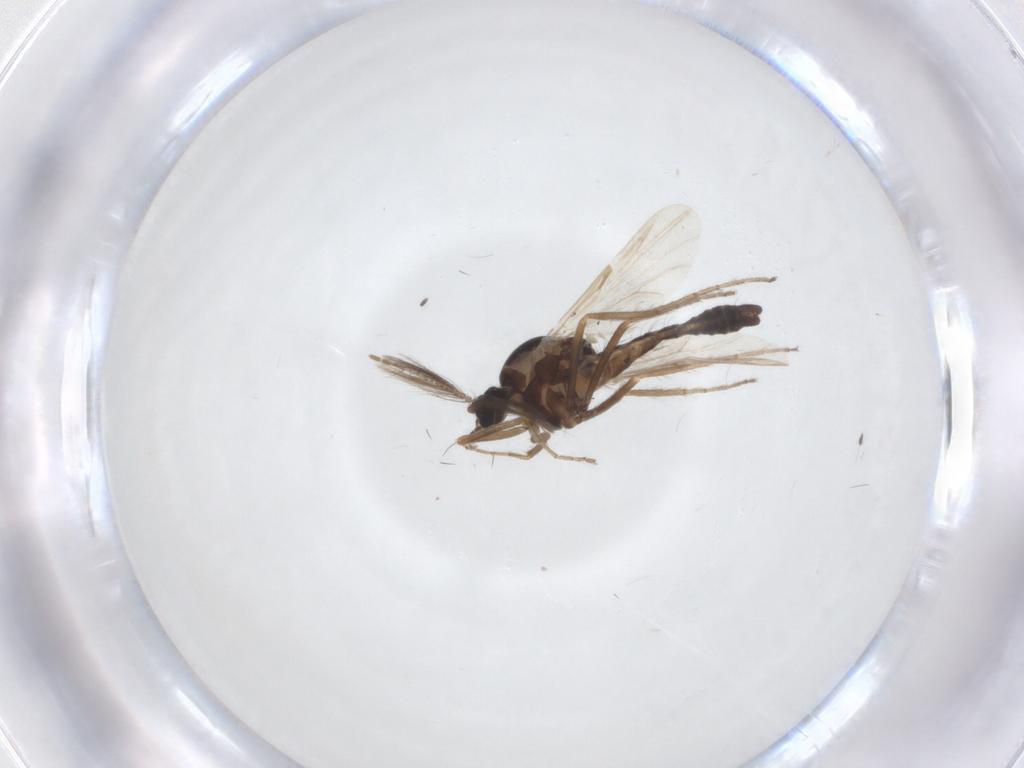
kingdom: Animalia
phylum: Arthropoda
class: Insecta
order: Diptera
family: Ceratopogonidae
